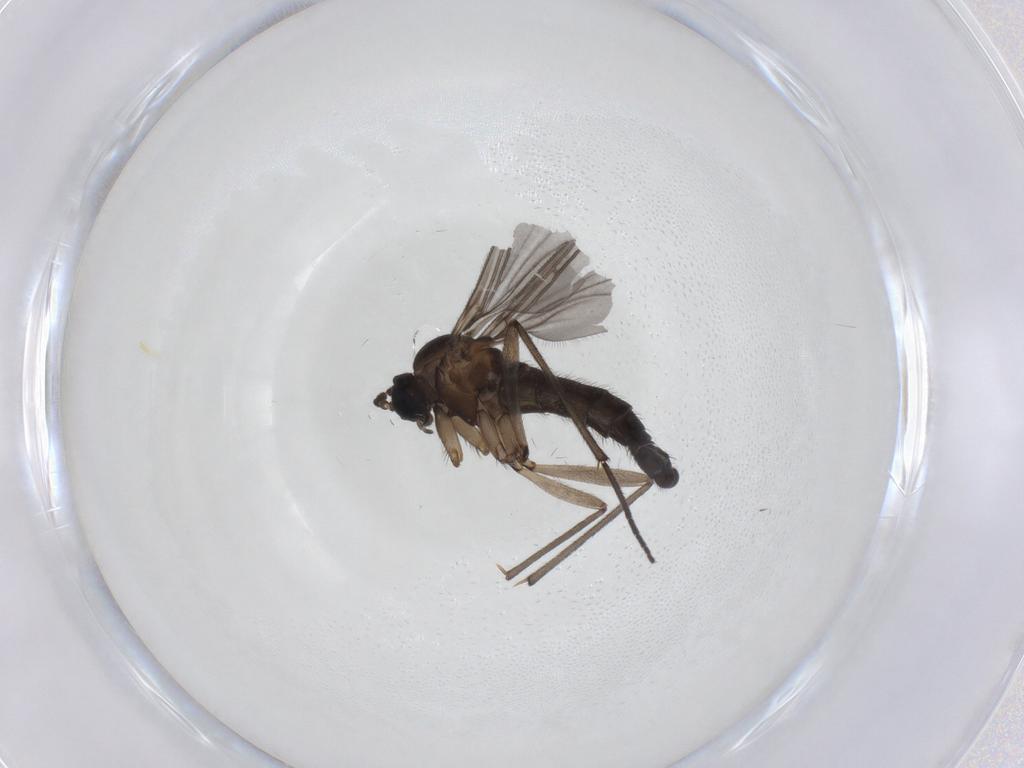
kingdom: Animalia
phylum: Arthropoda
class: Insecta
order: Diptera
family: Sciaridae
